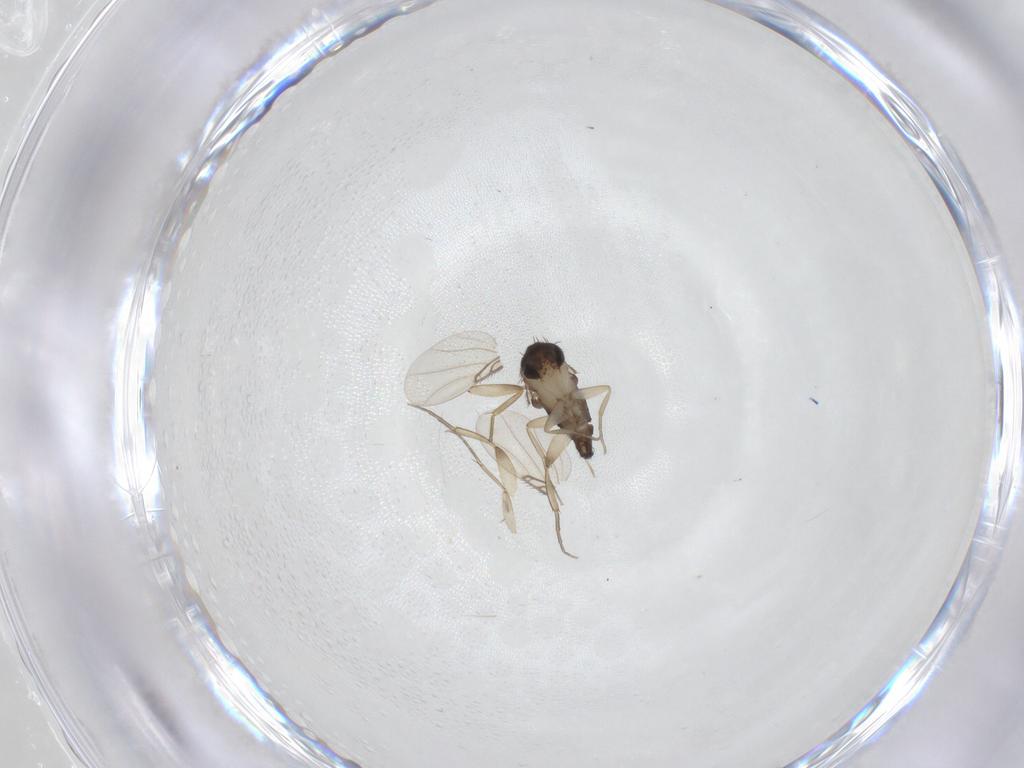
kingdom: Animalia
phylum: Arthropoda
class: Insecta
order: Diptera
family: Phoridae
